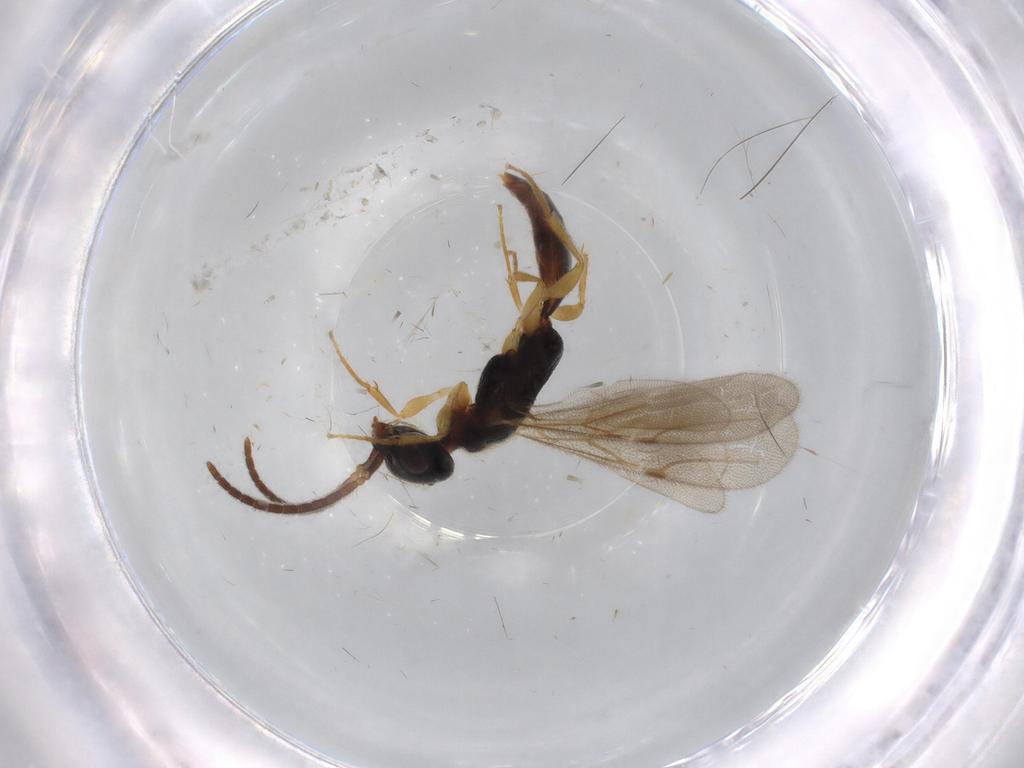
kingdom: Animalia
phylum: Arthropoda
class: Insecta
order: Hymenoptera
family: Bethylidae
